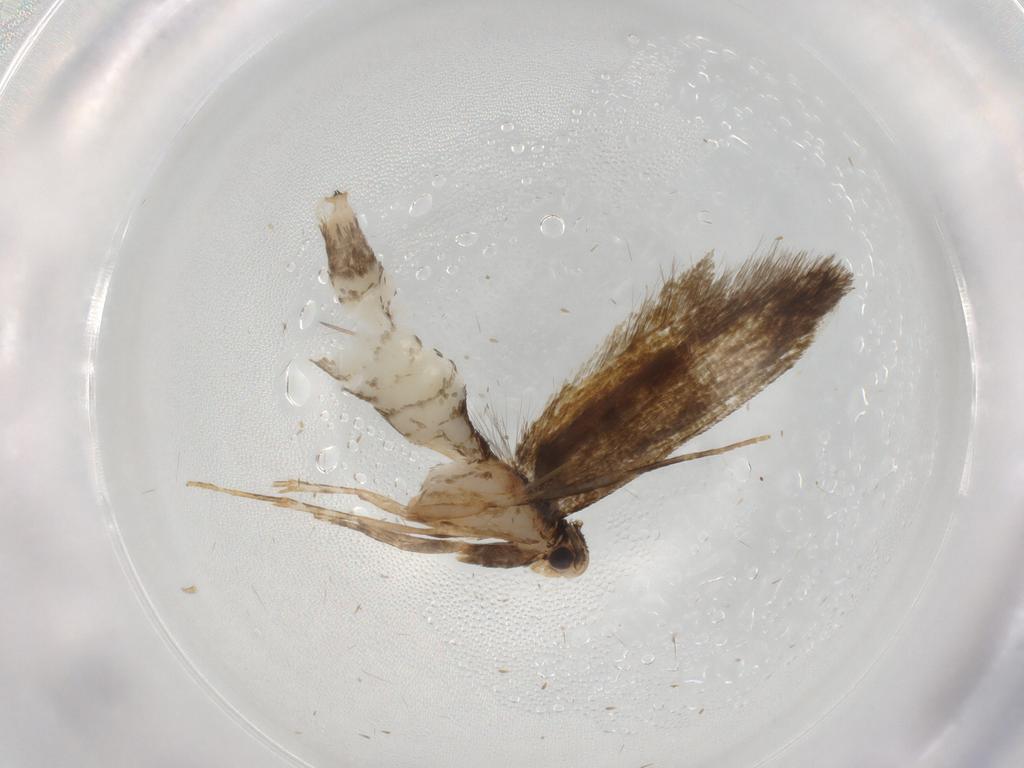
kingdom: Animalia
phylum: Arthropoda
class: Insecta
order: Lepidoptera
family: Tineidae
